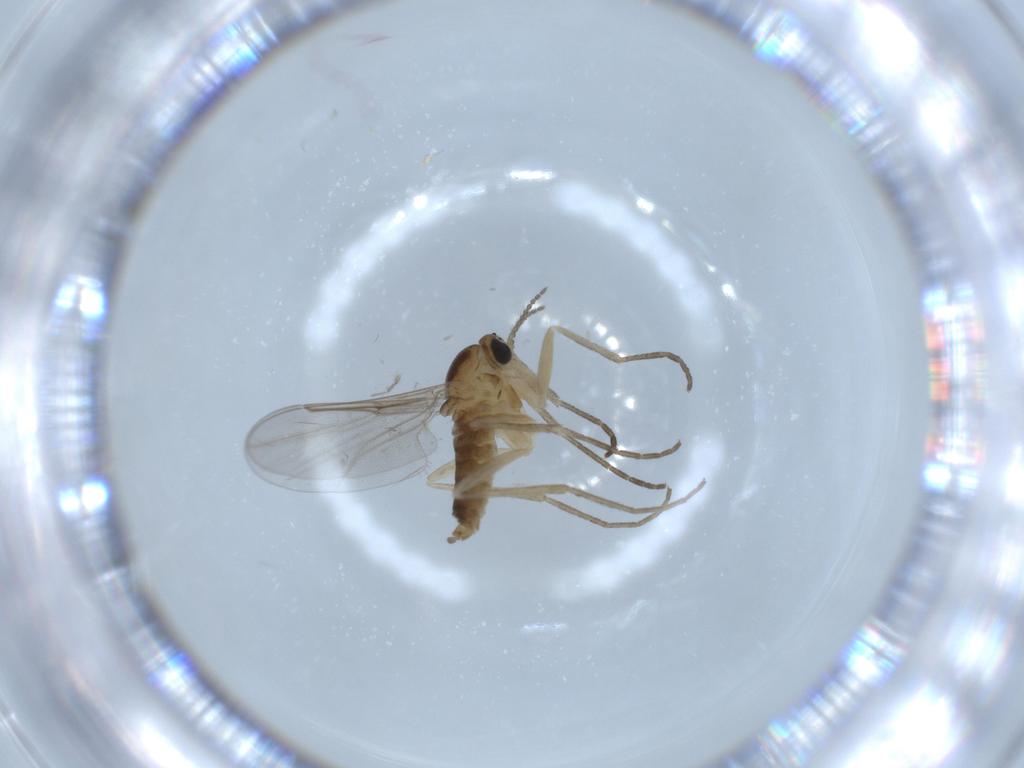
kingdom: Animalia
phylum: Arthropoda
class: Insecta
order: Diptera
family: Cecidomyiidae
